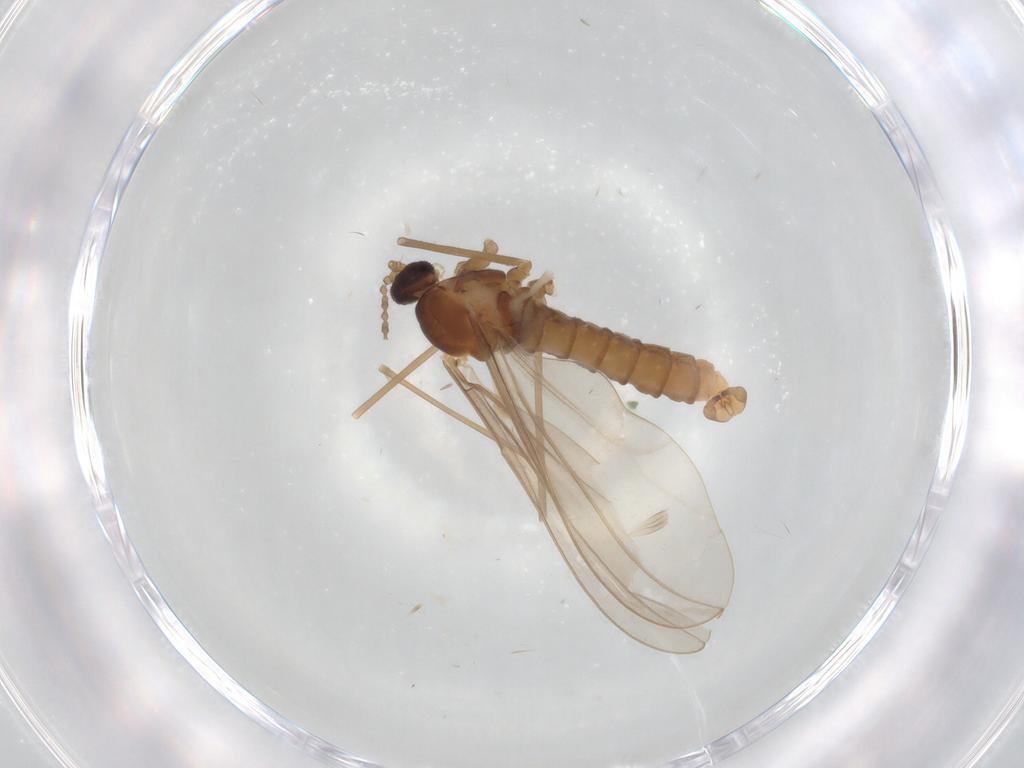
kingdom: Animalia
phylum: Arthropoda
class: Insecta
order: Diptera
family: Cecidomyiidae
